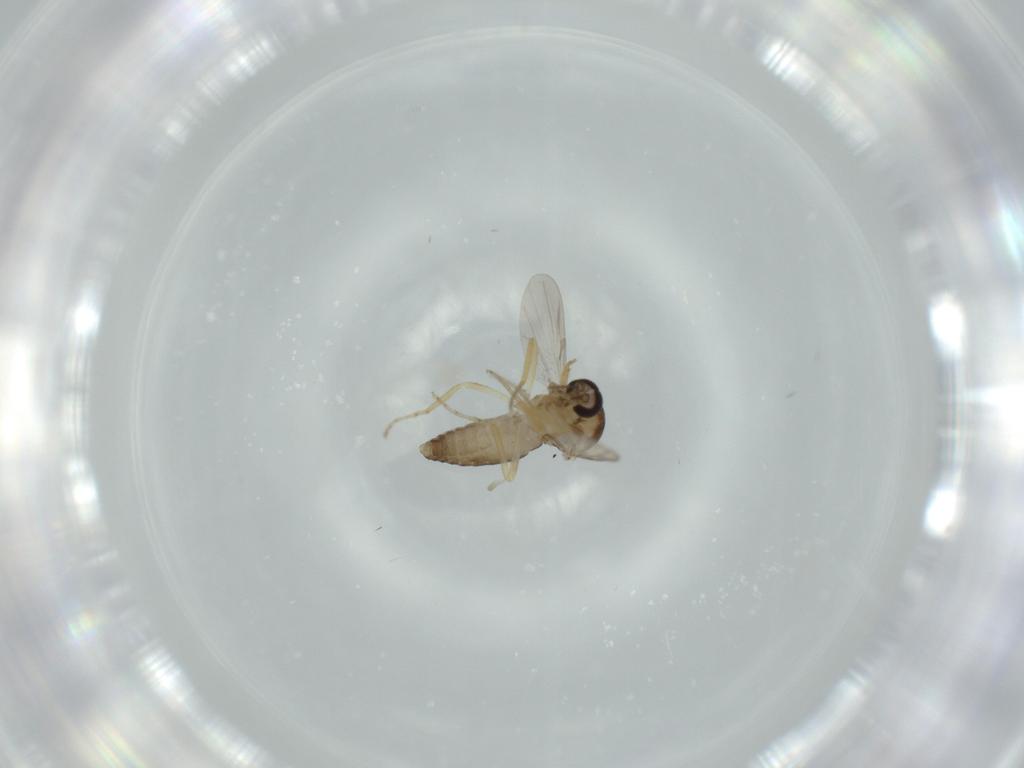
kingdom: Animalia
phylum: Arthropoda
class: Insecta
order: Diptera
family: Ceratopogonidae
